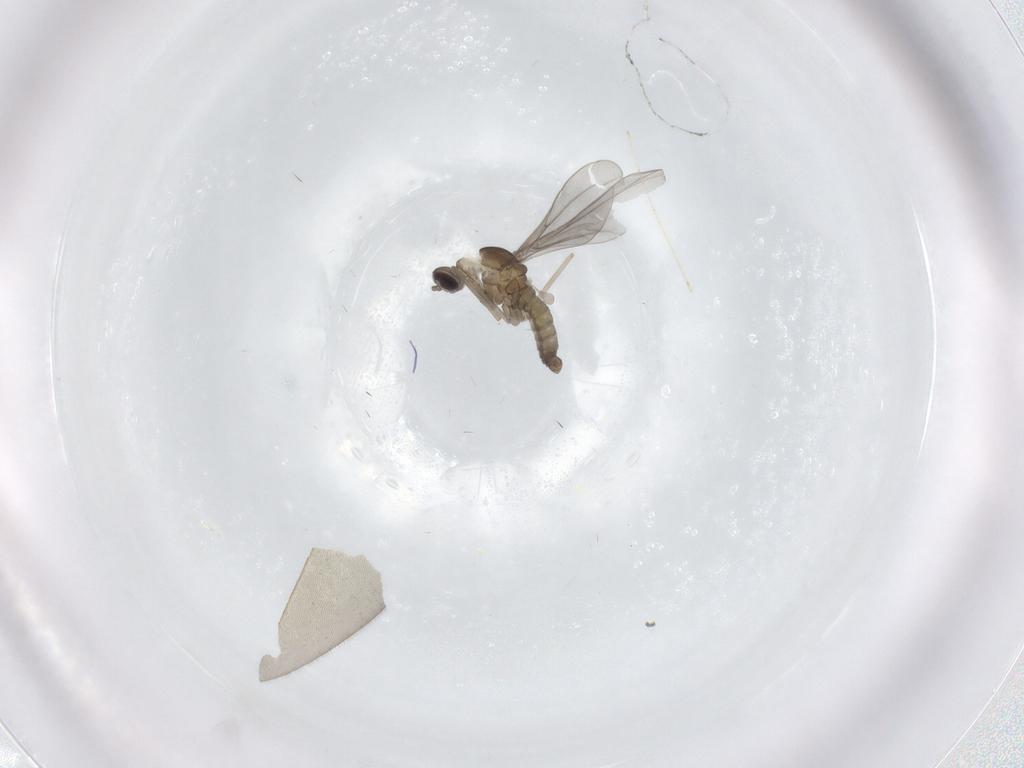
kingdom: Animalia
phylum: Arthropoda
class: Insecta
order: Diptera
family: Cecidomyiidae
